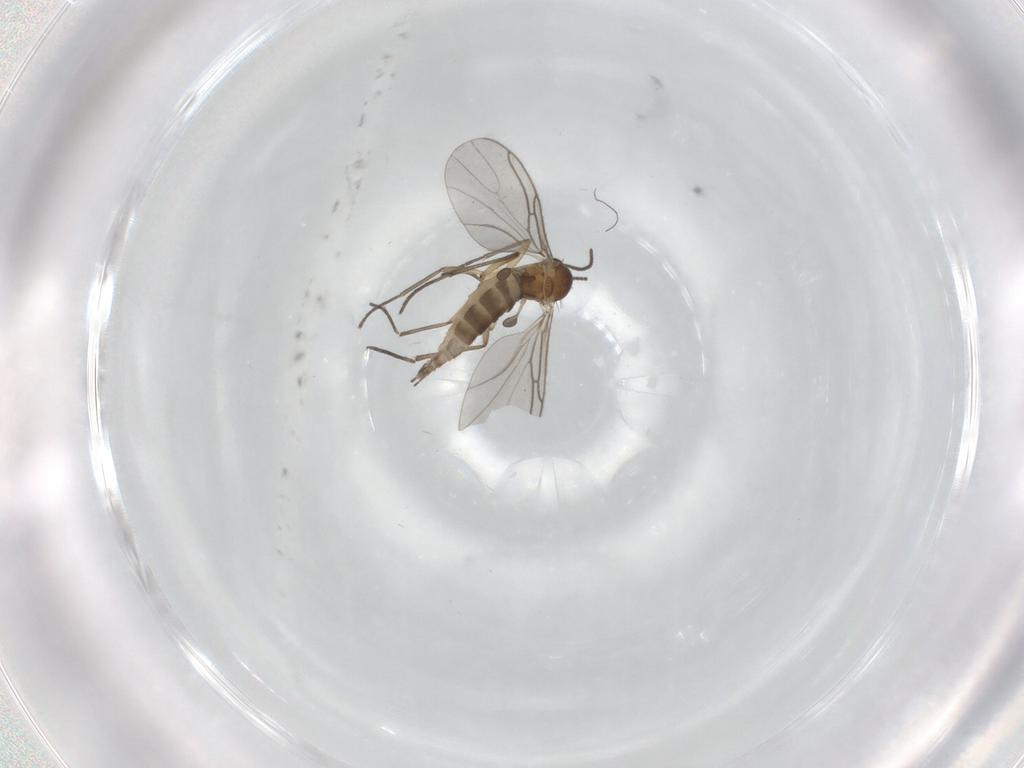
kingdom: Animalia
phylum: Arthropoda
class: Insecta
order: Diptera
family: Sciaridae
